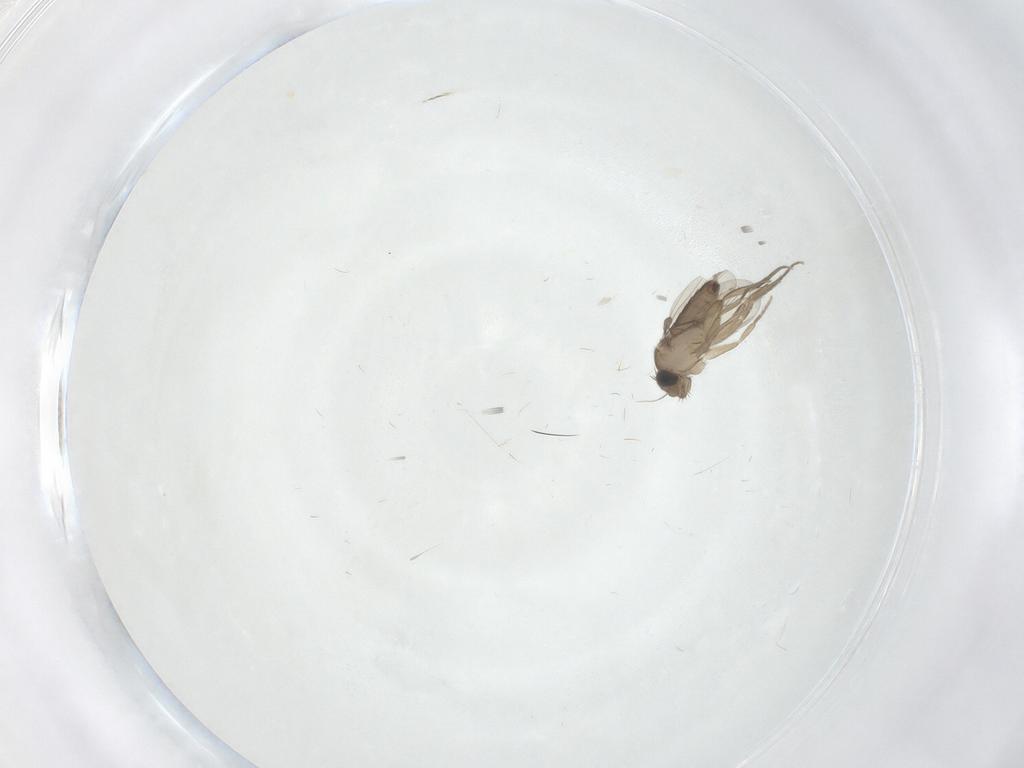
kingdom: Animalia
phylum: Arthropoda
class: Insecta
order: Diptera
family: Phoridae
